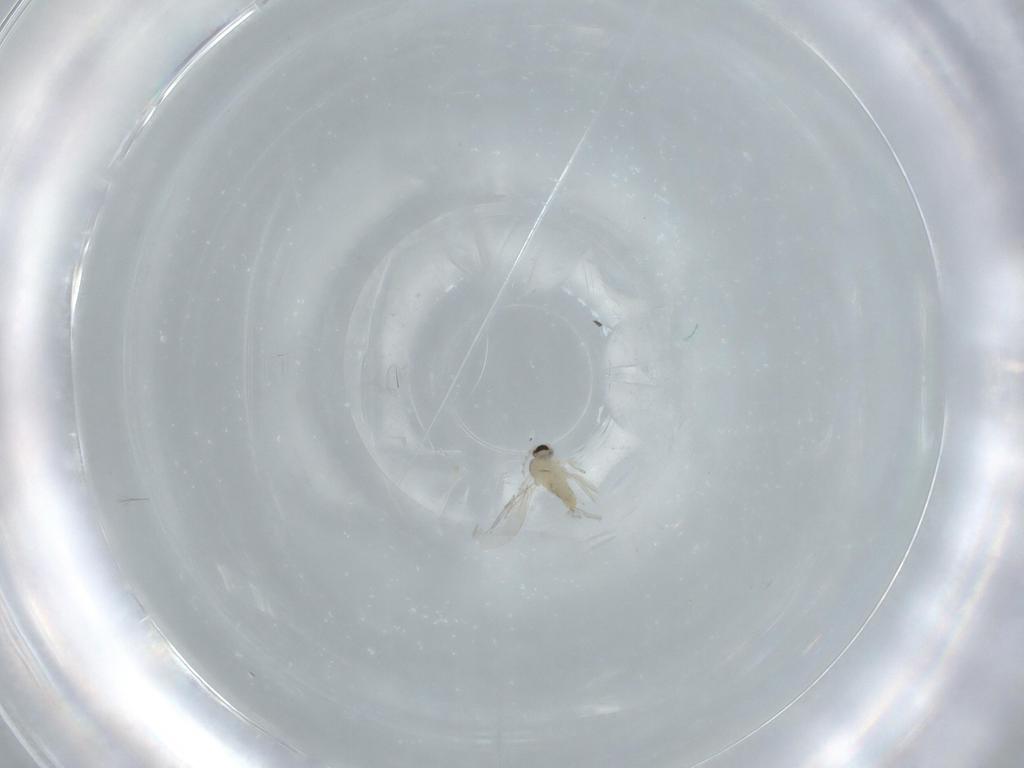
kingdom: Animalia
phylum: Arthropoda
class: Insecta
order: Diptera
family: Cecidomyiidae
